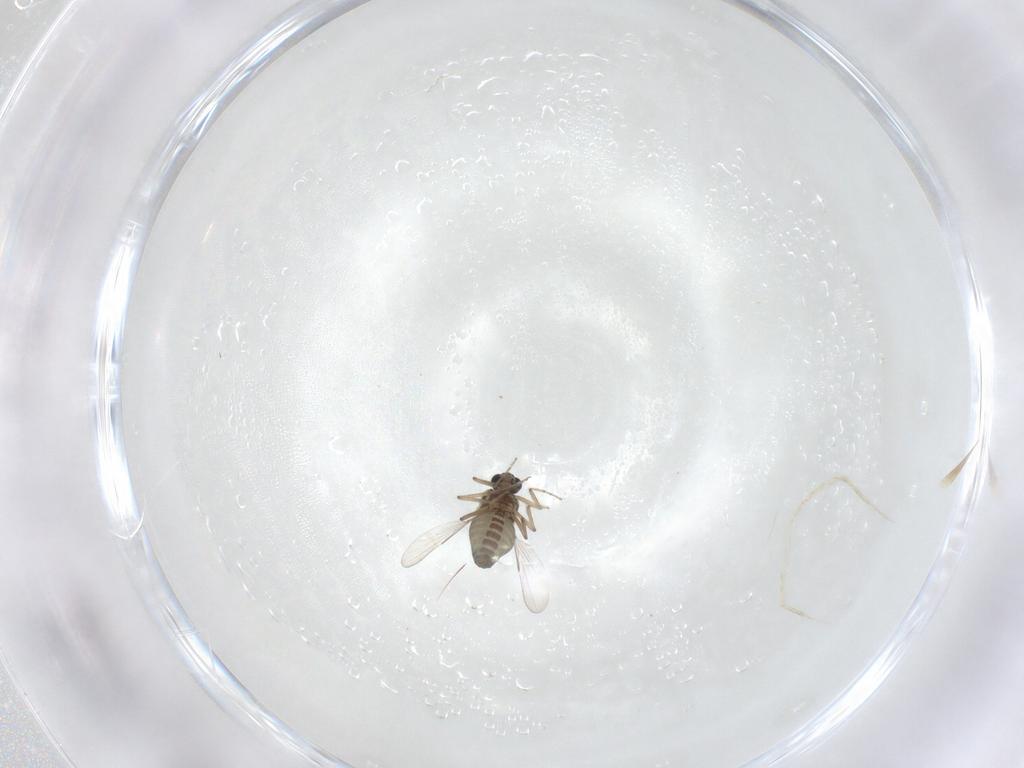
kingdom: Animalia
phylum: Arthropoda
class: Insecta
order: Diptera
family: Ceratopogonidae
